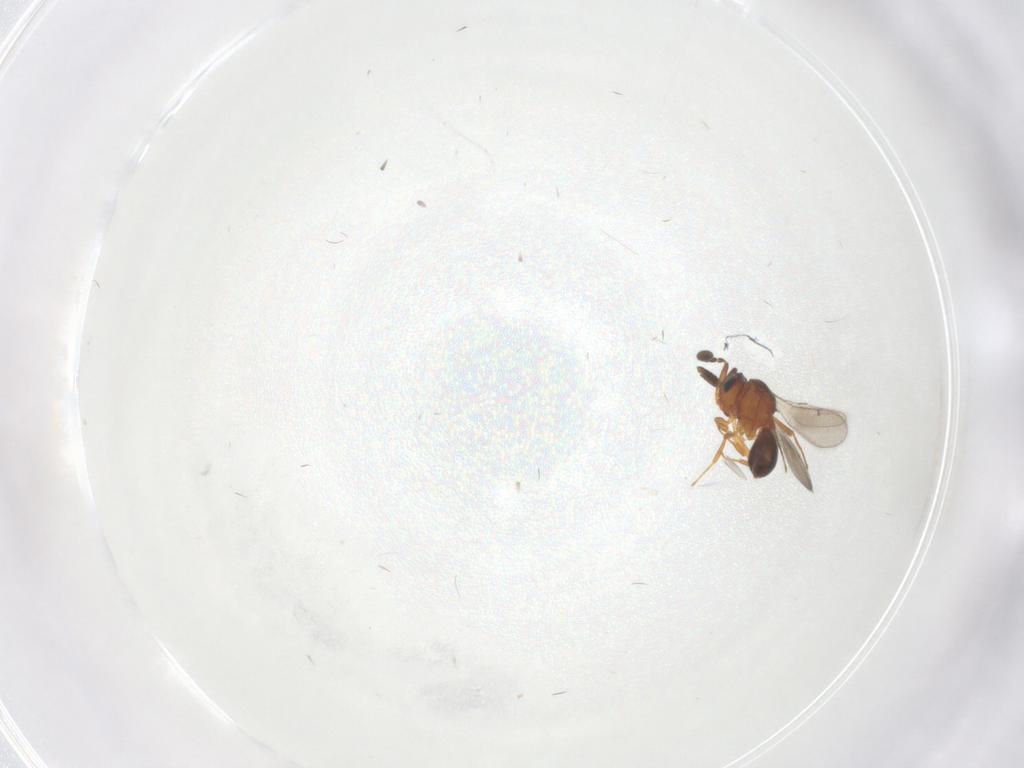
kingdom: Animalia
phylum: Arthropoda
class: Insecta
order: Hymenoptera
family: Scelionidae
